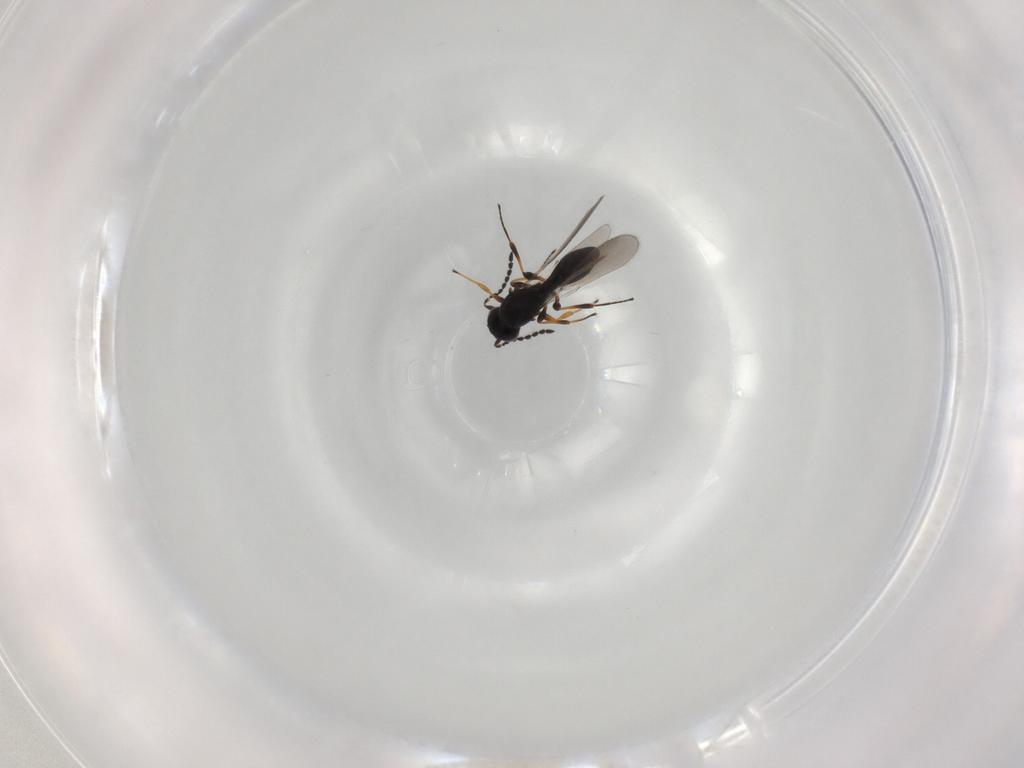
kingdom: Animalia
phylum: Arthropoda
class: Insecta
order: Hymenoptera
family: Platygastridae
